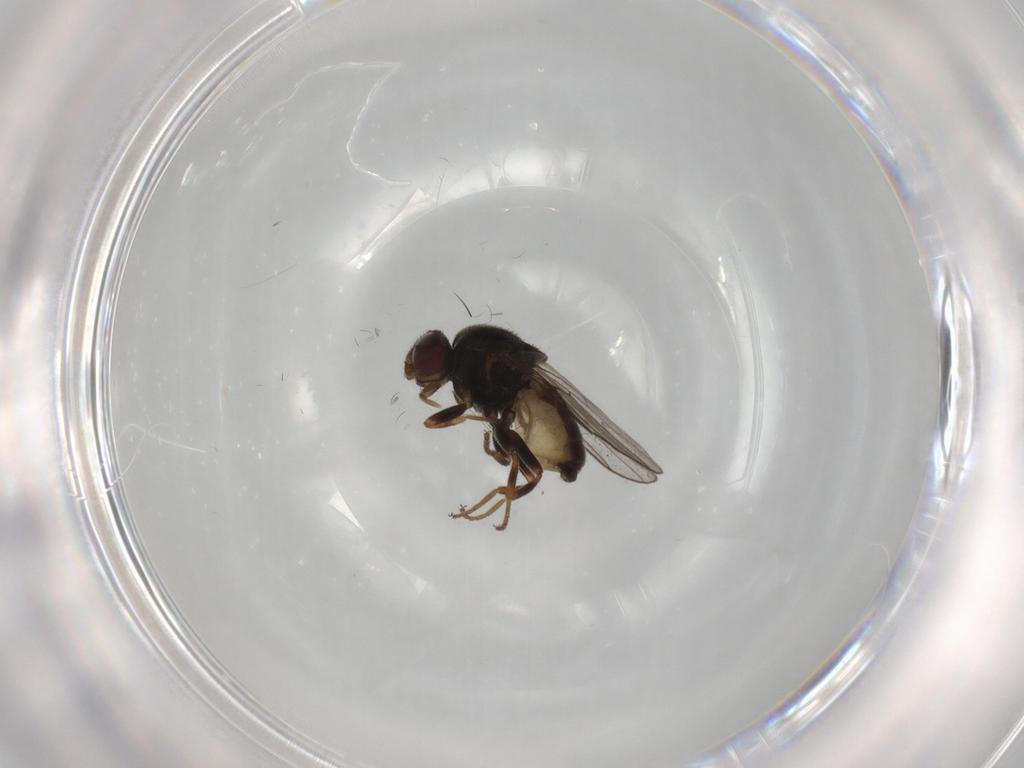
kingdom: Animalia
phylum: Arthropoda
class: Insecta
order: Diptera
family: Chloropidae
